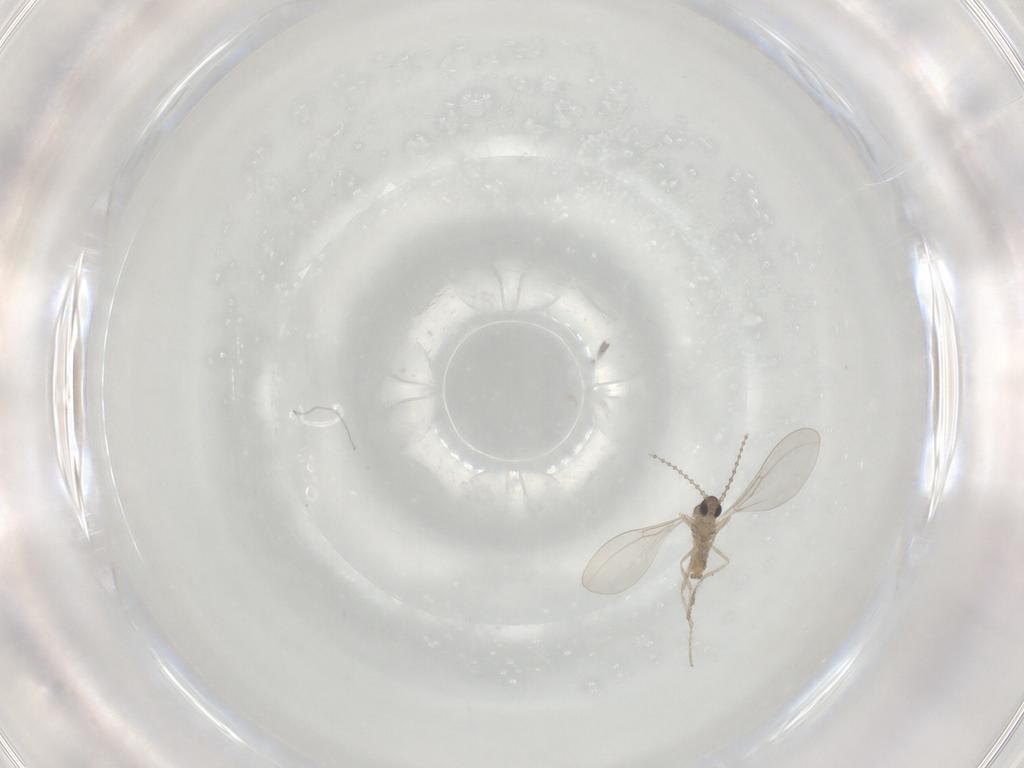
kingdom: Animalia
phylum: Arthropoda
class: Insecta
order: Diptera
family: Cecidomyiidae
